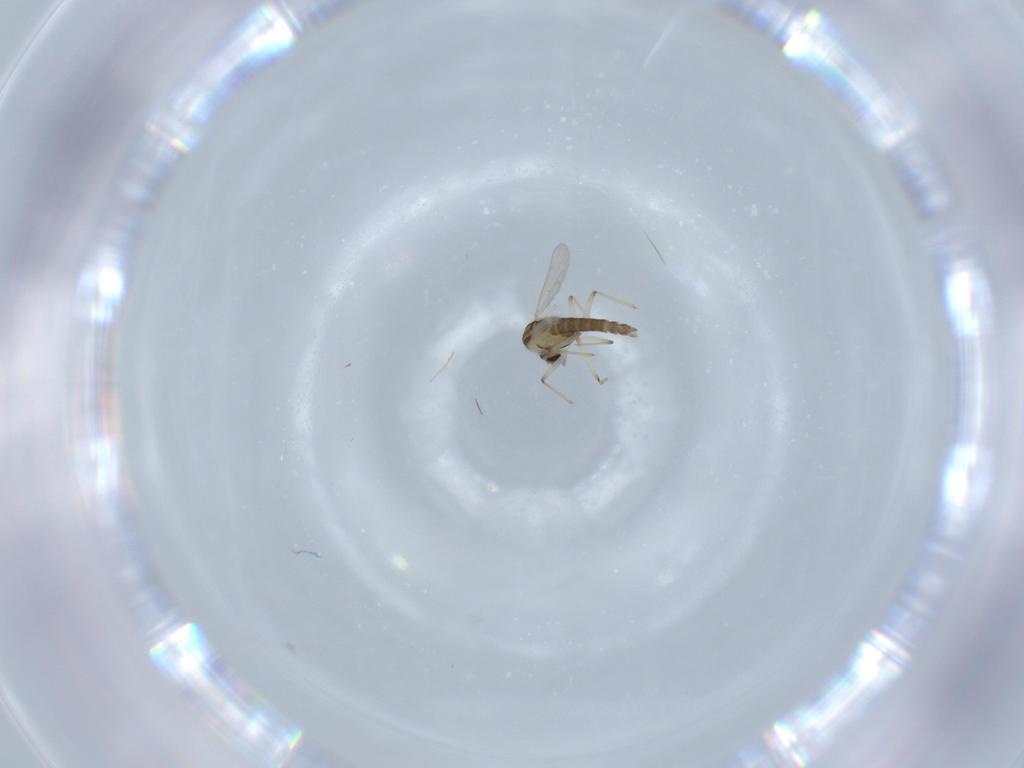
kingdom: Animalia
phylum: Arthropoda
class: Insecta
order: Diptera
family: Chironomidae
